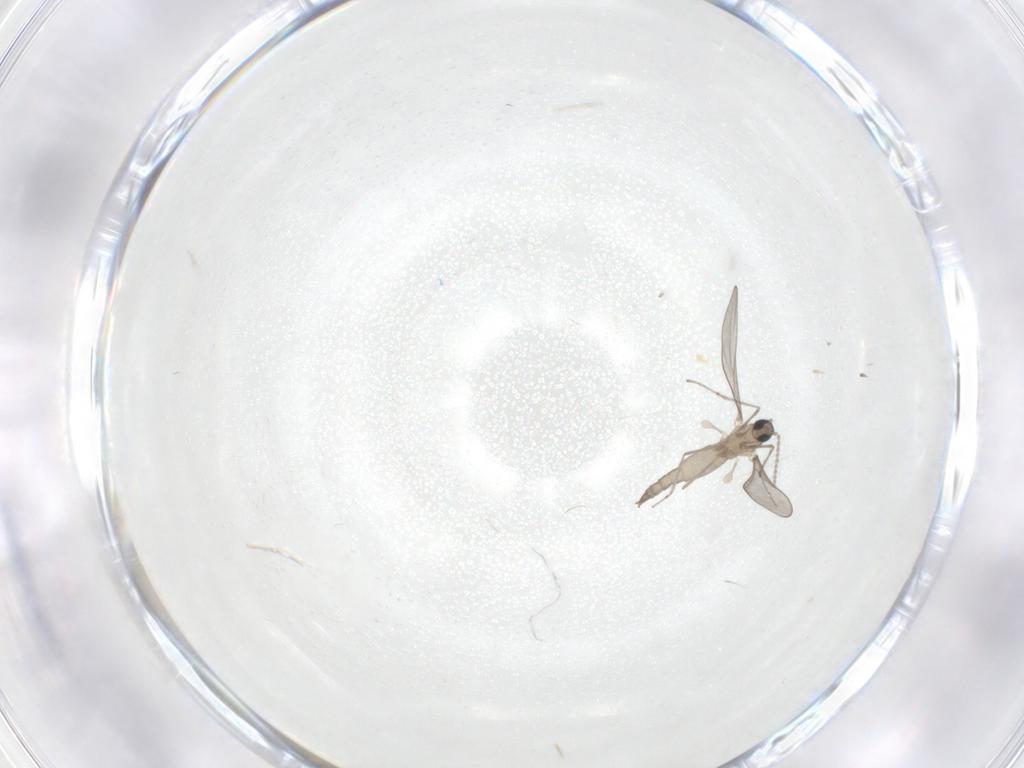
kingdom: Animalia
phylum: Arthropoda
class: Insecta
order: Diptera
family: Cecidomyiidae
